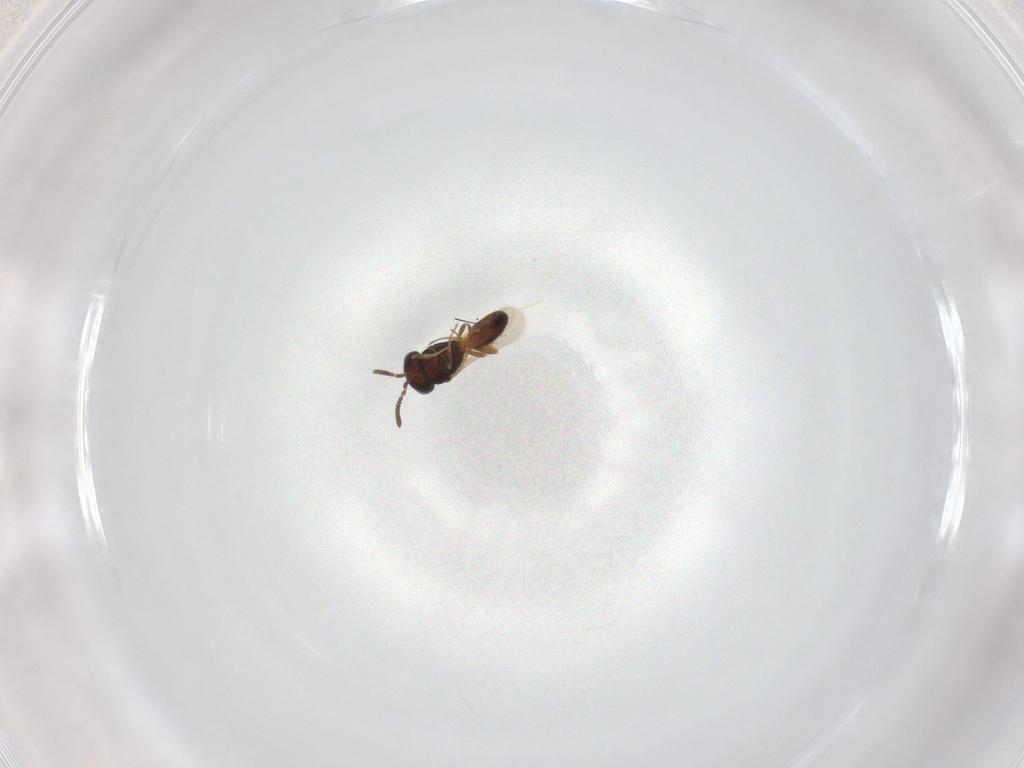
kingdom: Animalia
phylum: Arthropoda
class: Insecta
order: Hymenoptera
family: Scelionidae
